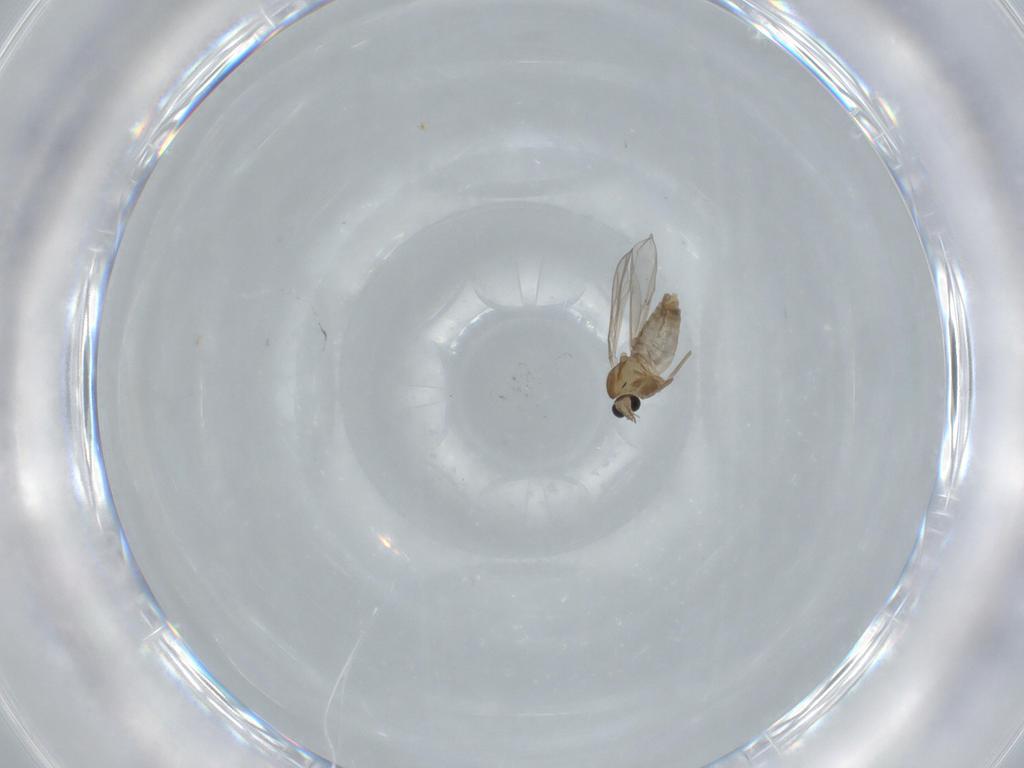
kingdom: Animalia
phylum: Arthropoda
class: Insecta
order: Diptera
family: Chironomidae
